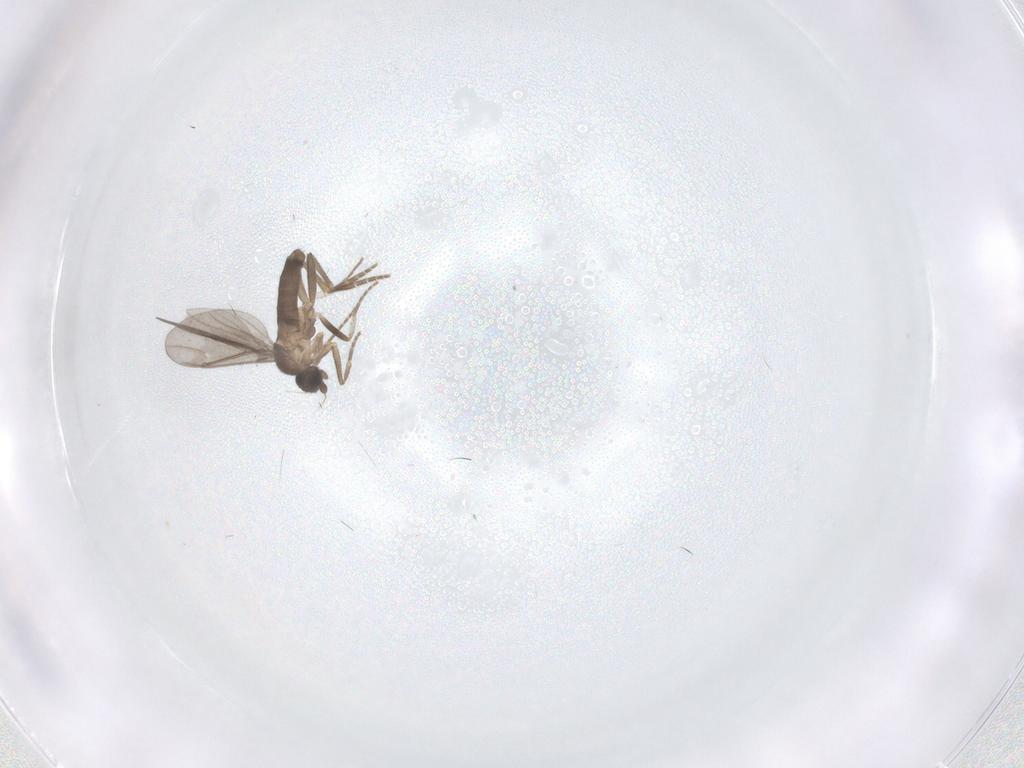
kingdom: Animalia
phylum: Arthropoda
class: Insecta
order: Diptera
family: Phoridae
